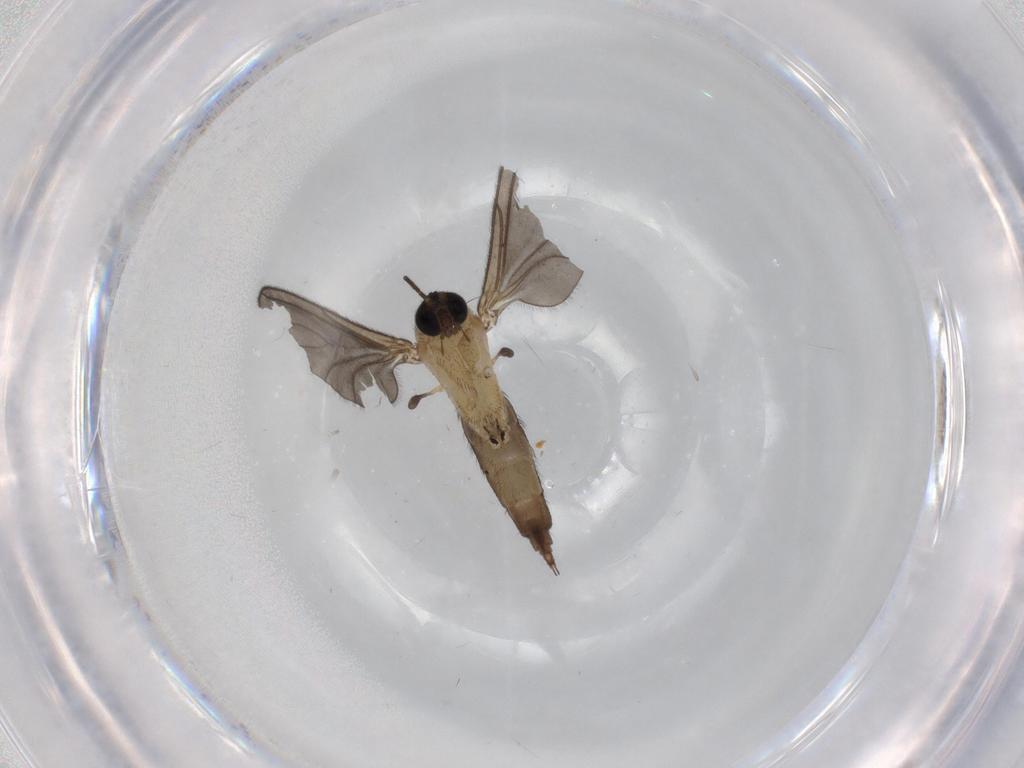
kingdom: Animalia
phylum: Arthropoda
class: Insecta
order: Diptera
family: Sciaridae
